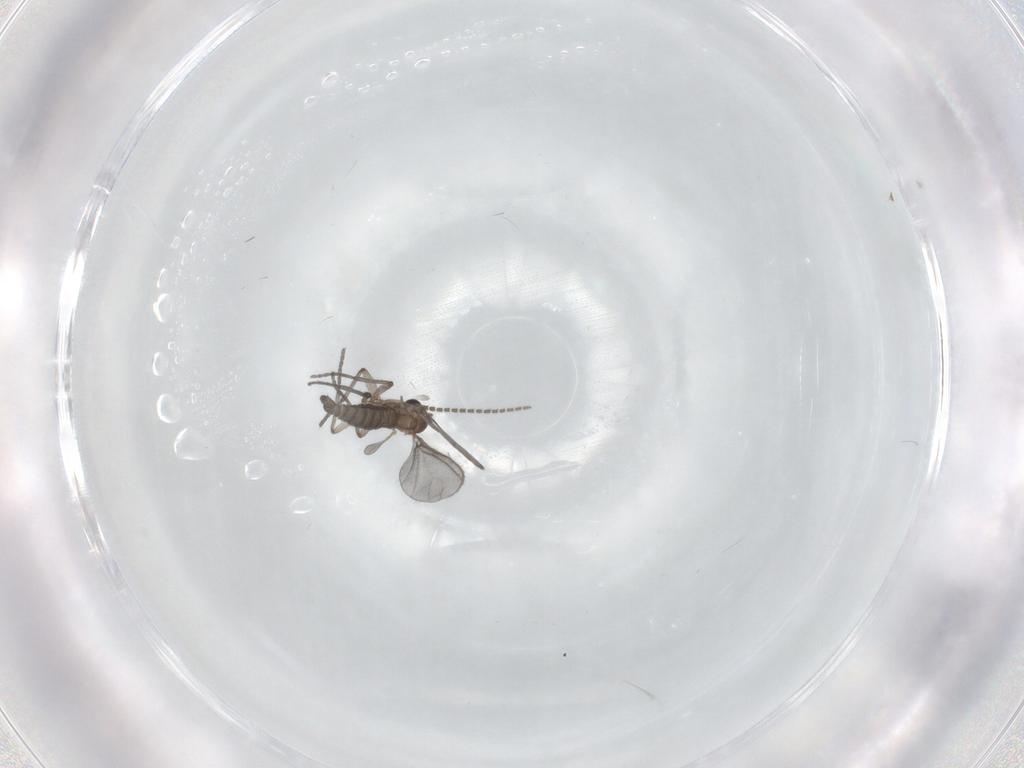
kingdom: Animalia
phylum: Arthropoda
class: Insecta
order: Diptera
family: Sciaridae
